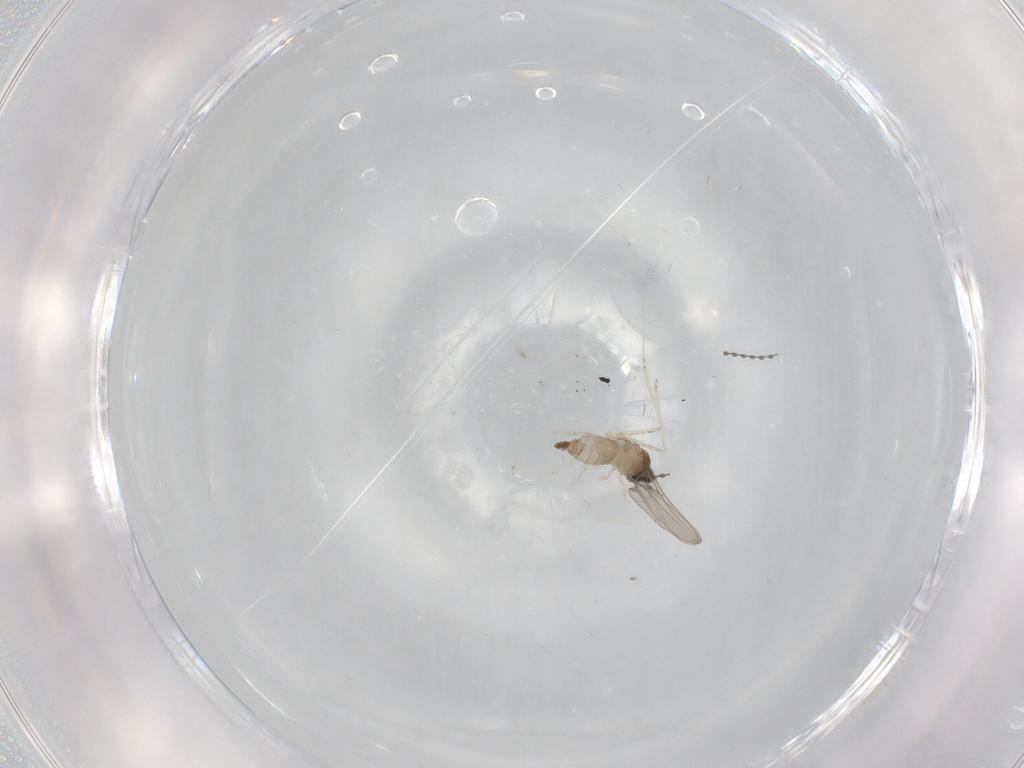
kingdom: Animalia
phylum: Arthropoda
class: Insecta
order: Diptera
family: Cecidomyiidae
